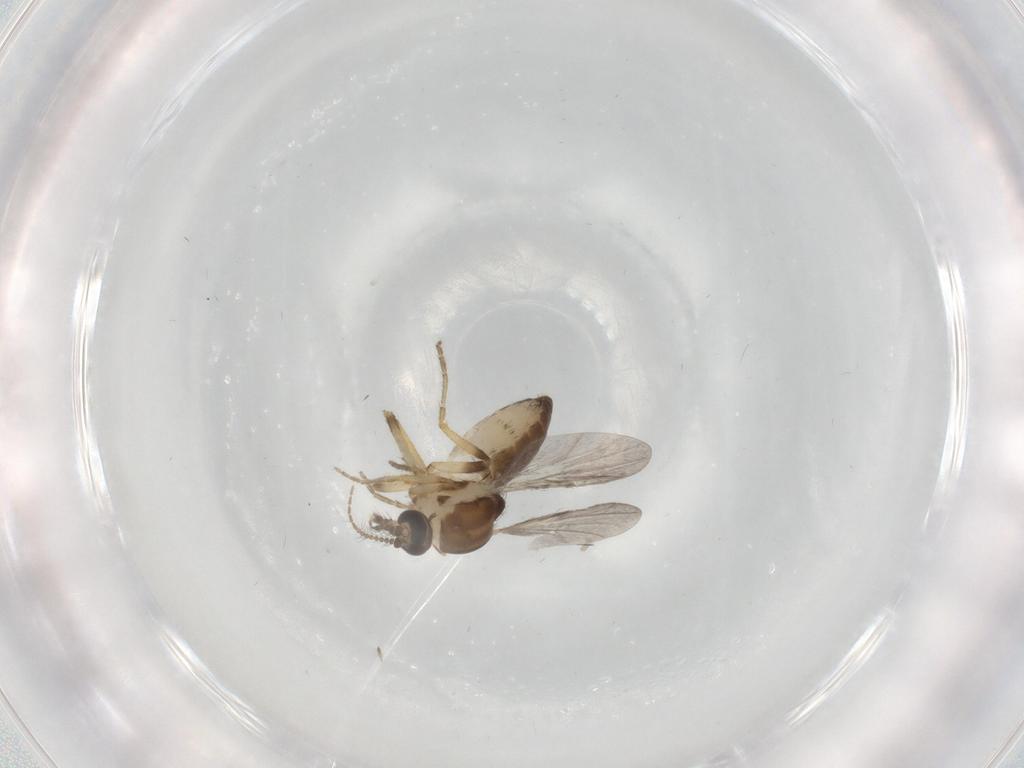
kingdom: Animalia
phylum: Arthropoda
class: Insecta
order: Diptera
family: Ceratopogonidae
